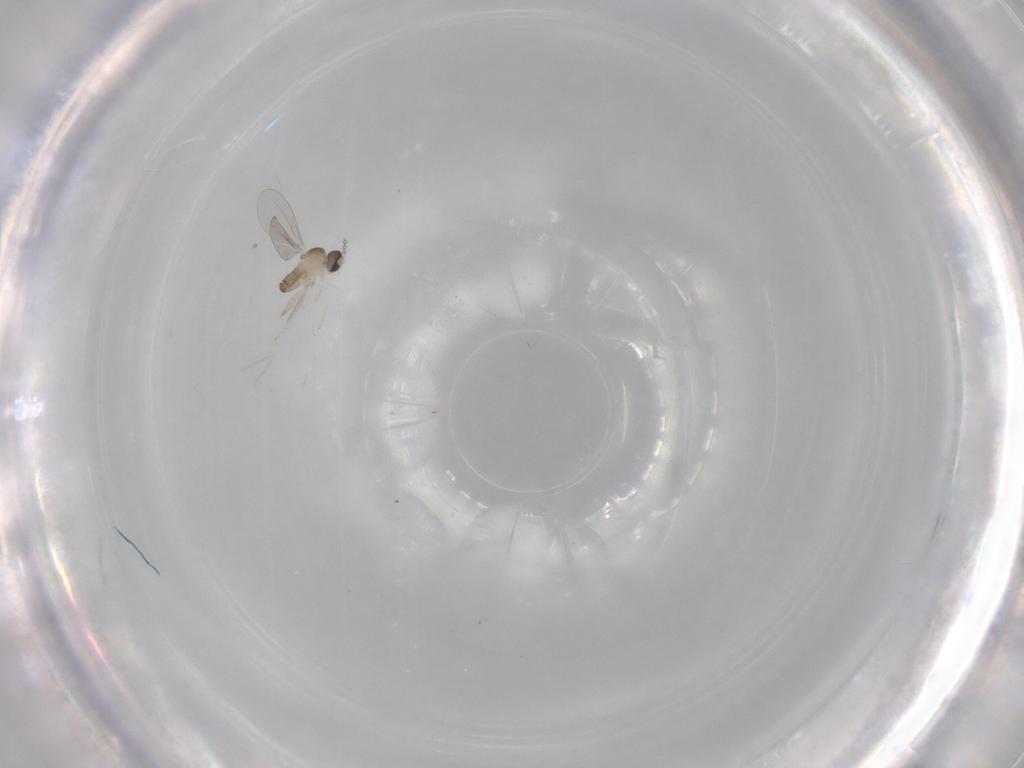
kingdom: Animalia
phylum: Arthropoda
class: Insecta
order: Diptera
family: Cecidomyiidae
